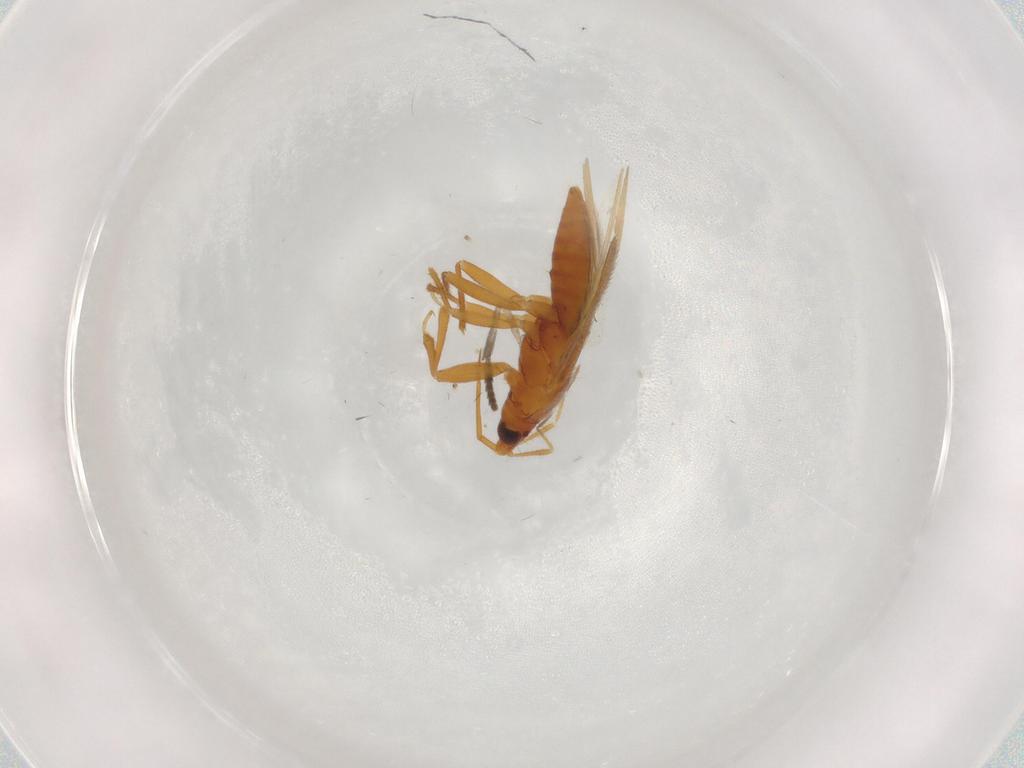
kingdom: Animalia
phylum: Arthropoda
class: Insecta
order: Hemiptera
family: Anthocoridae
